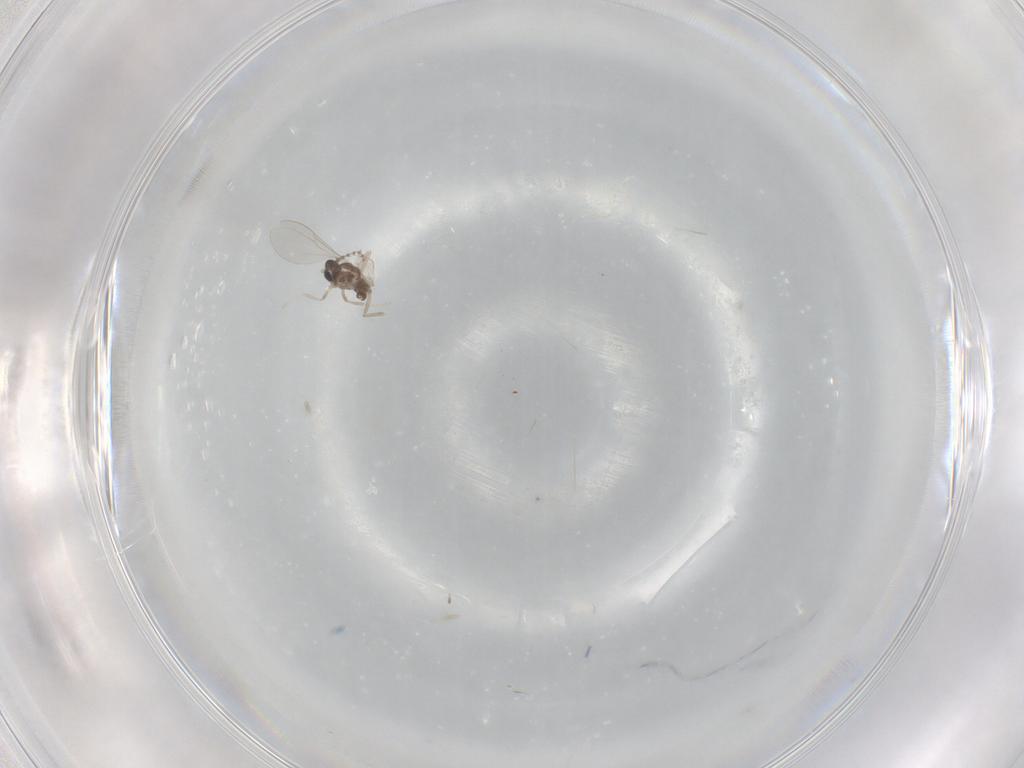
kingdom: Animalia
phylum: Arthropoda
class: Insecta
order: Diptera
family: Cecidomyiidae
